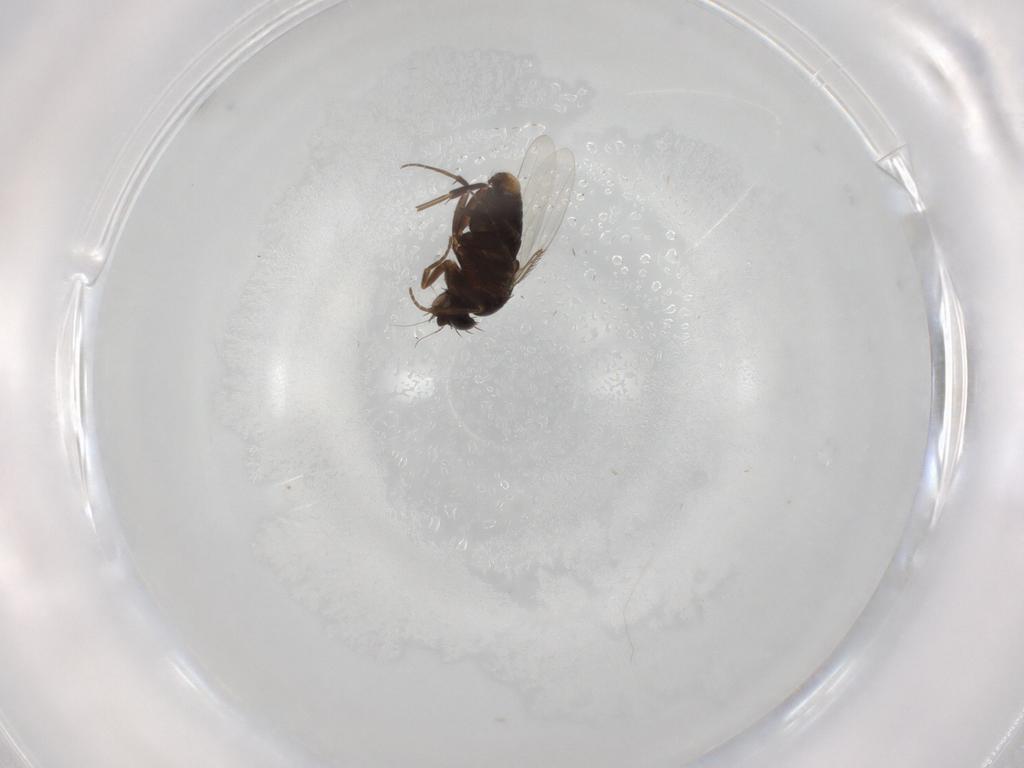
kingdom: Animalia
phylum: Arthropoda
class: Insecta
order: Diptera
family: Phoridae
